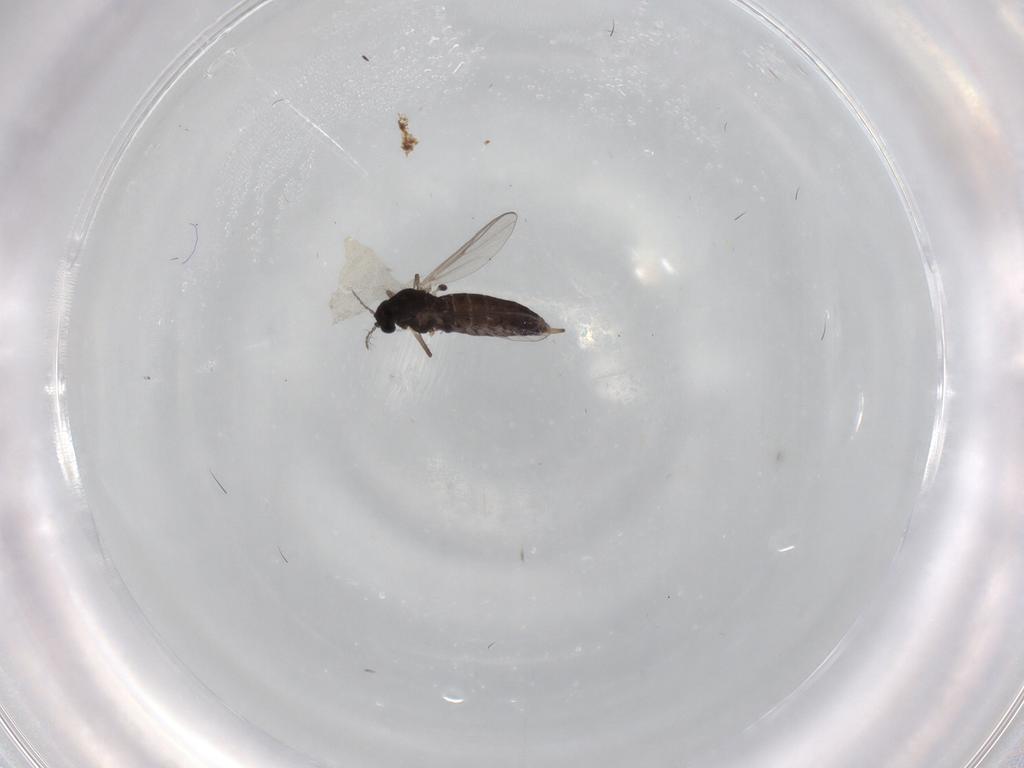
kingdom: Animalia
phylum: Arthropoda
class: Insecta
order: Diptera
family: Chironomidae
